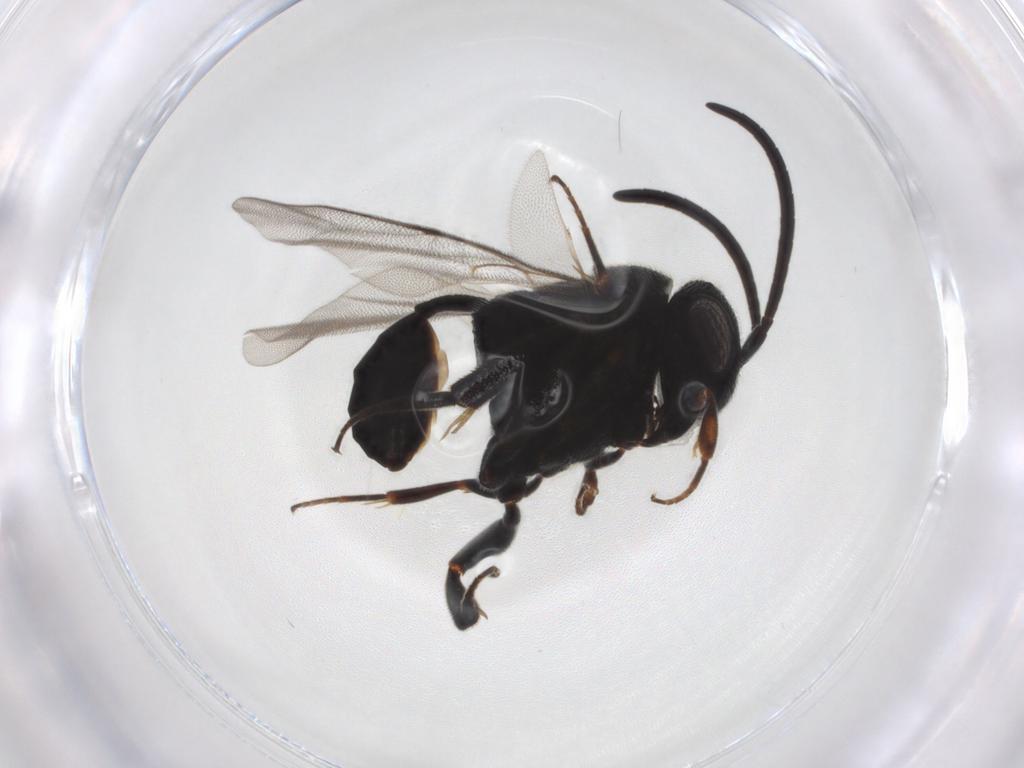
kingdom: Animalia
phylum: Arthropoda
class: Insecta
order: Hymenoptera
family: Evaniidae
